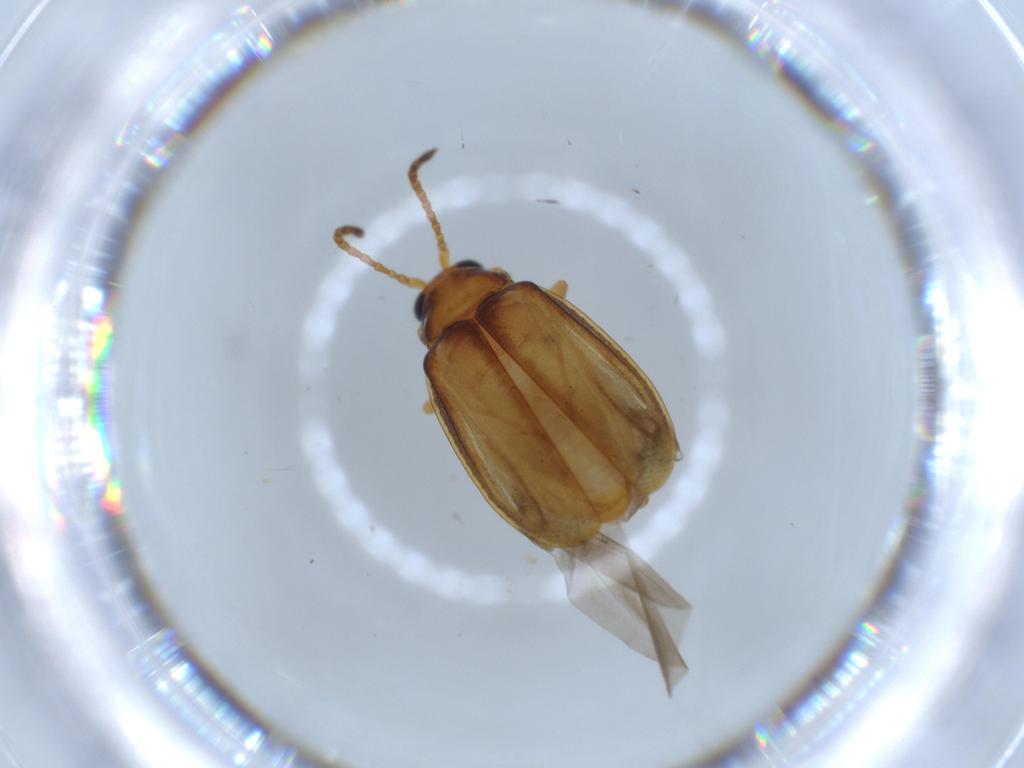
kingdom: Animalia
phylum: Arthropoda
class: Insecta
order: Coleoptera
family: Chrysomelidae
